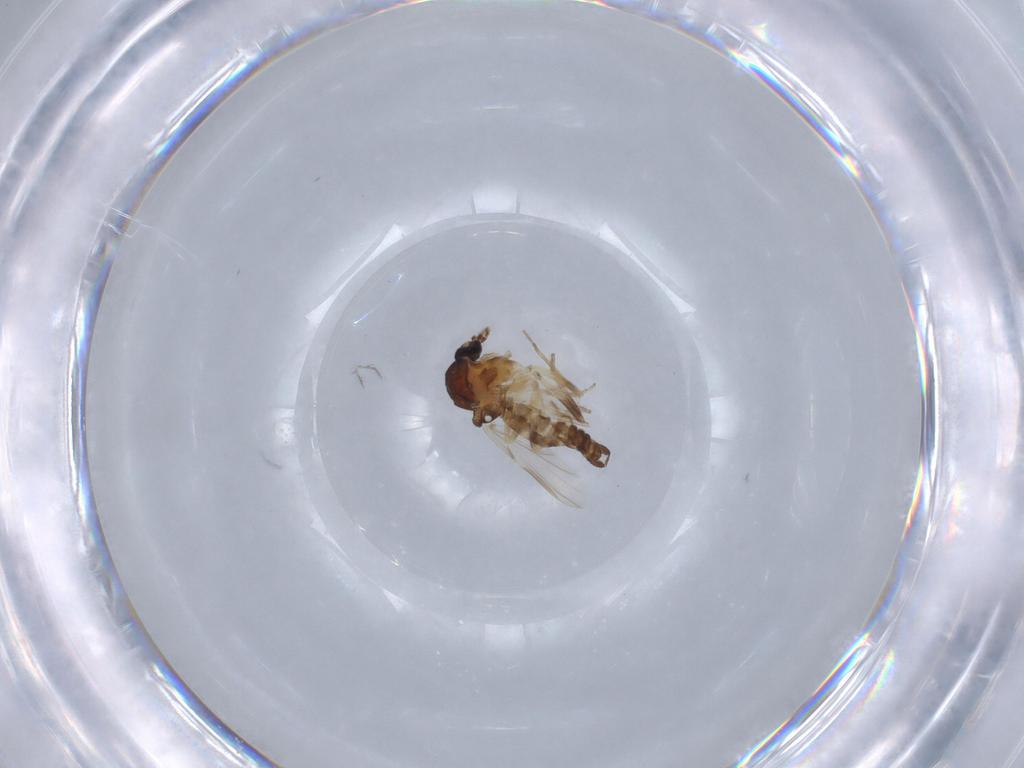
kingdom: Animalia
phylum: Arthropoda
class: Insecta
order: Diptera
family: Ceratopogonidae
